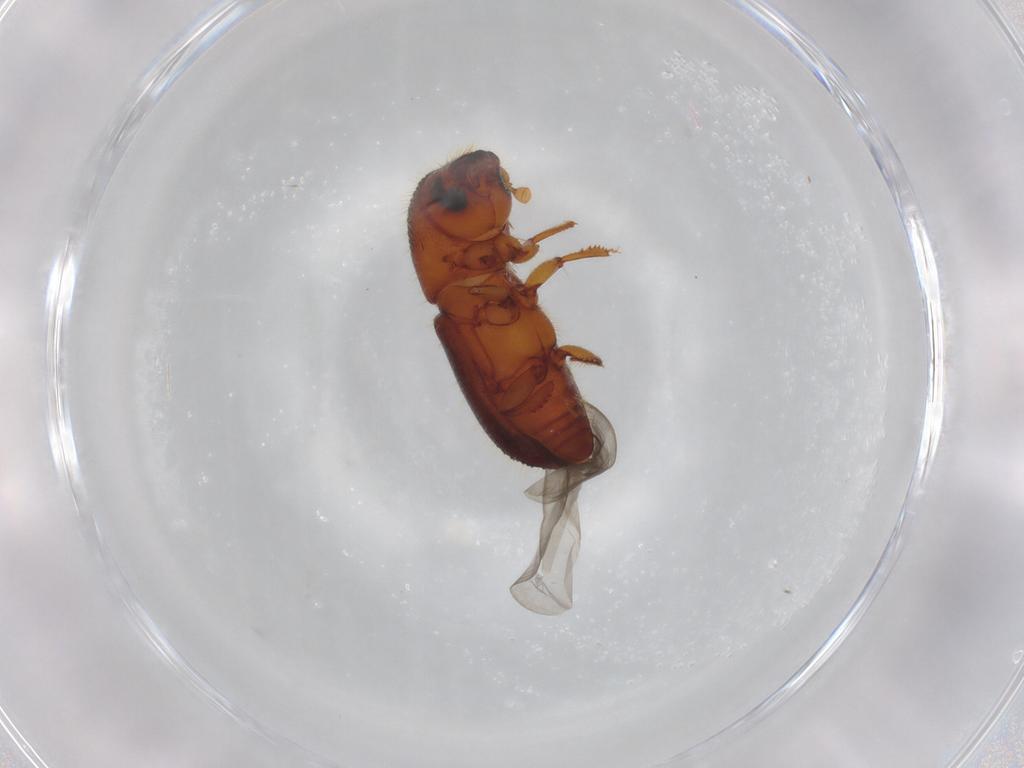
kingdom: Animalia
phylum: Arthropoda
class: Insecta
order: Coleoptera
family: Curculionidae
